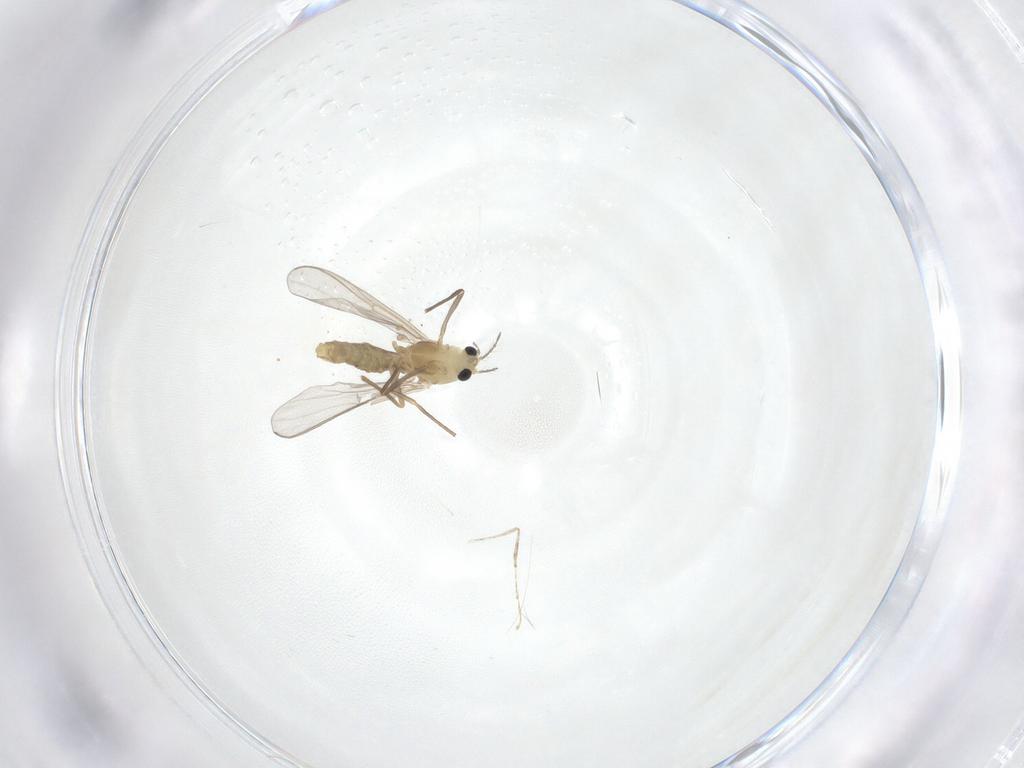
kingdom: Animalia
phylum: Arthropoda
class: Insecta
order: Diptera
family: Chironomidae
